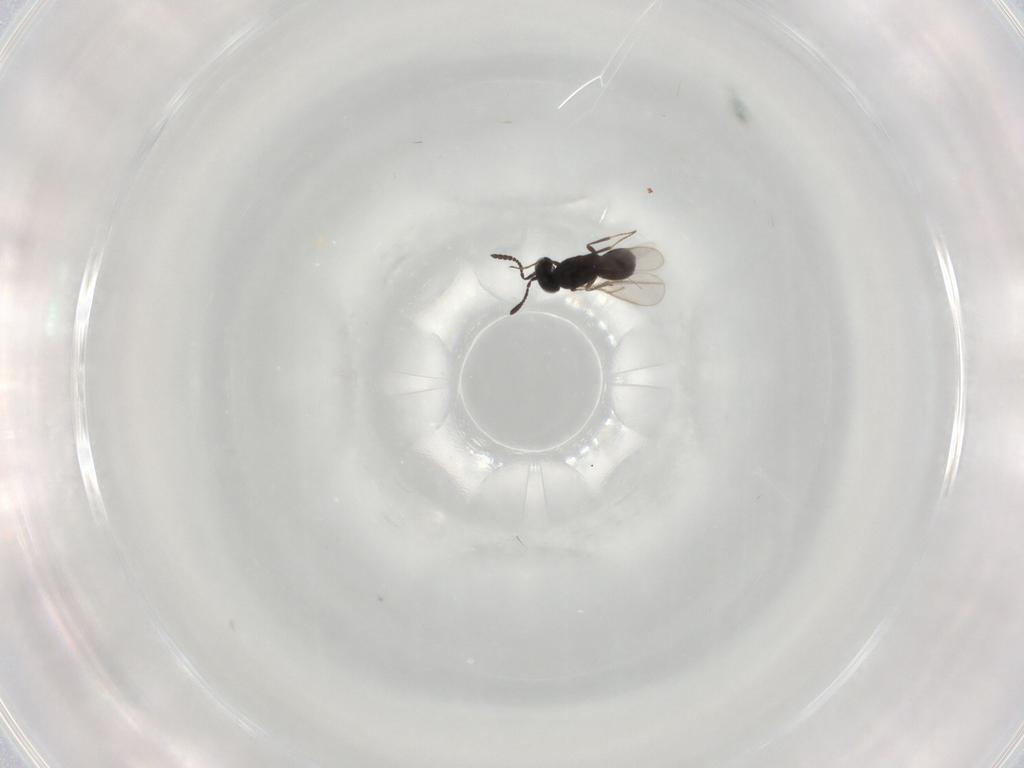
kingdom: Animalia
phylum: Arthropoda
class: Insecta
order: Hymenoptera
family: Scelionidae
